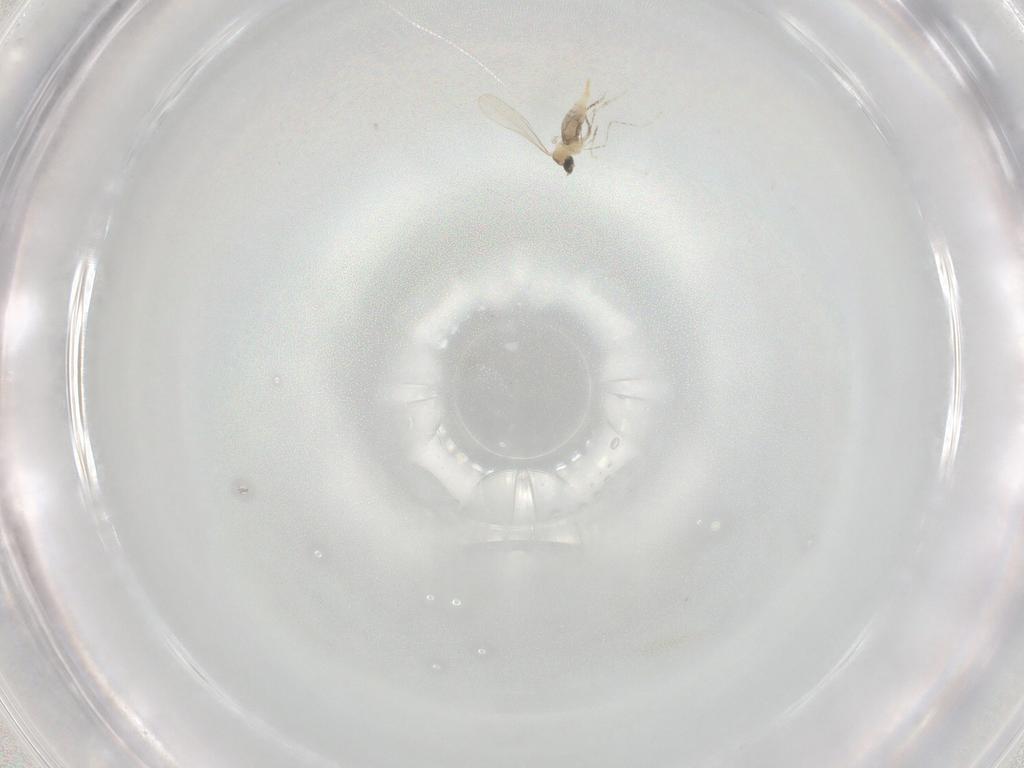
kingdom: Animalia
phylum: Arthropoda
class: Insecta
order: Diptera
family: Stratiomyidae
